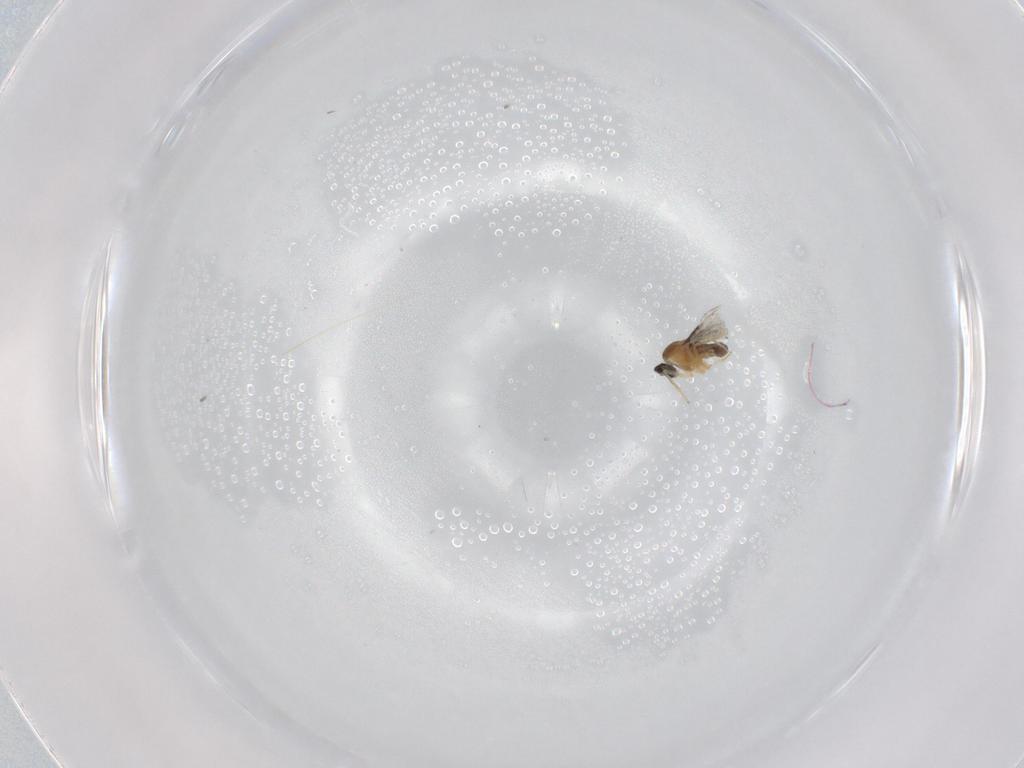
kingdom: Animalia
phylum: Arthropoda
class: Insecta
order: Diptera
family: Cecidomyiidae
